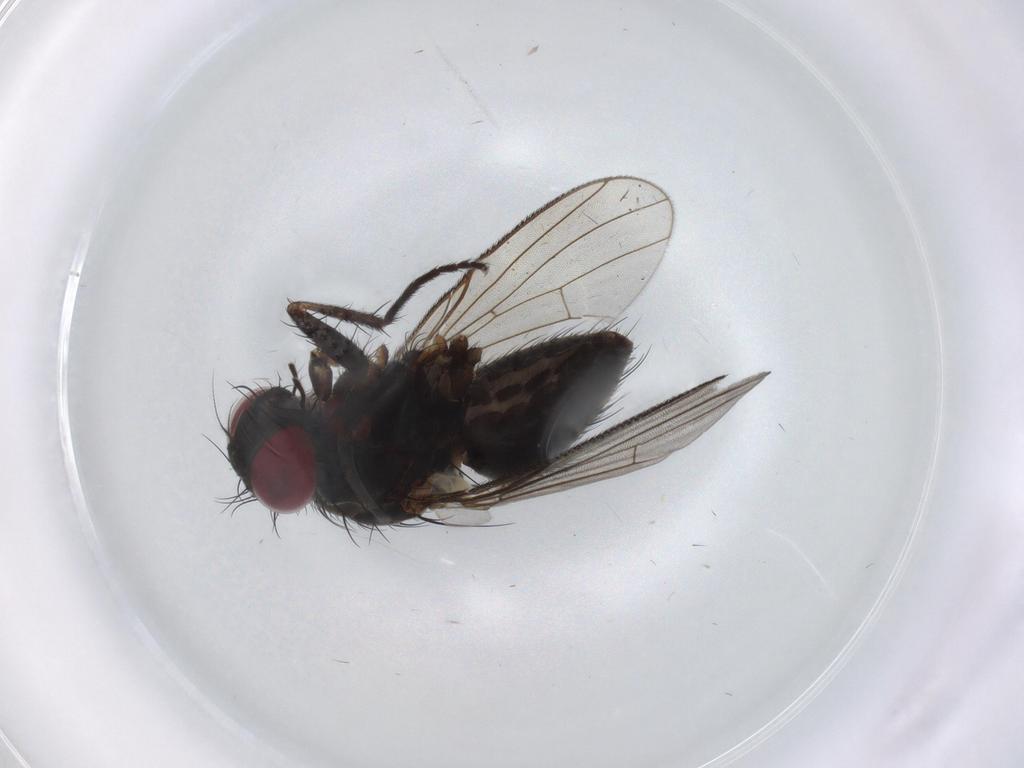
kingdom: Animalia
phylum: Arthropoda
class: Insecta
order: Diptera
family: Muscidae
